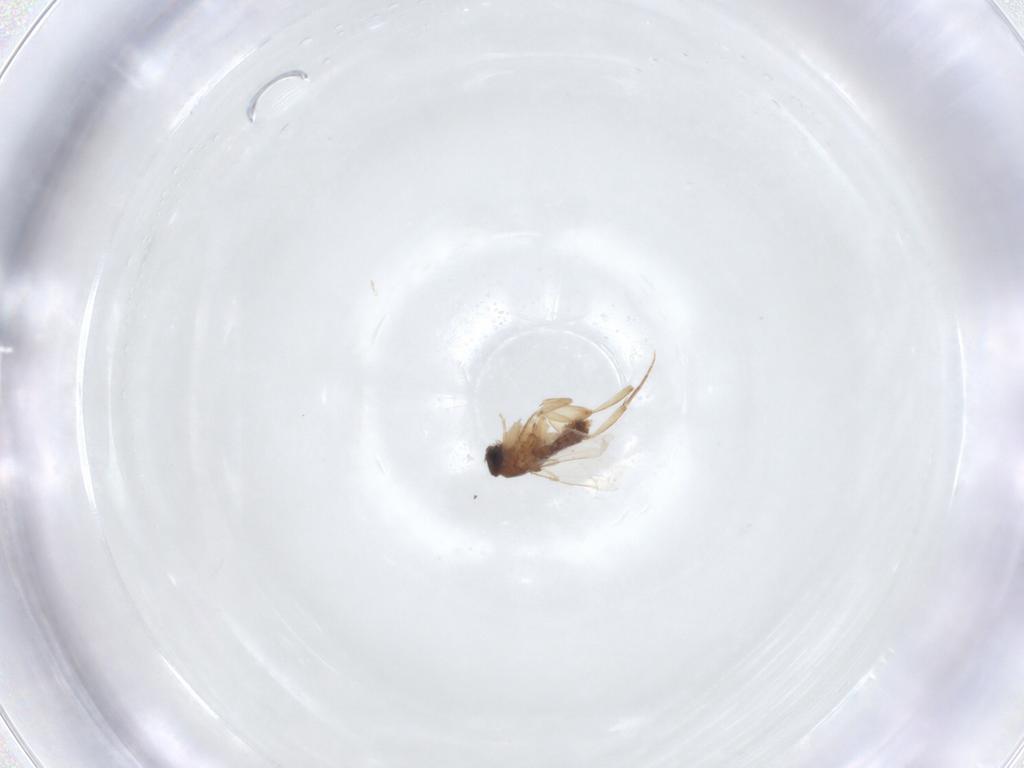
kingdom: Animalia
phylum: Arthropoda
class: Insecta
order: Diptera
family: Phoridae
